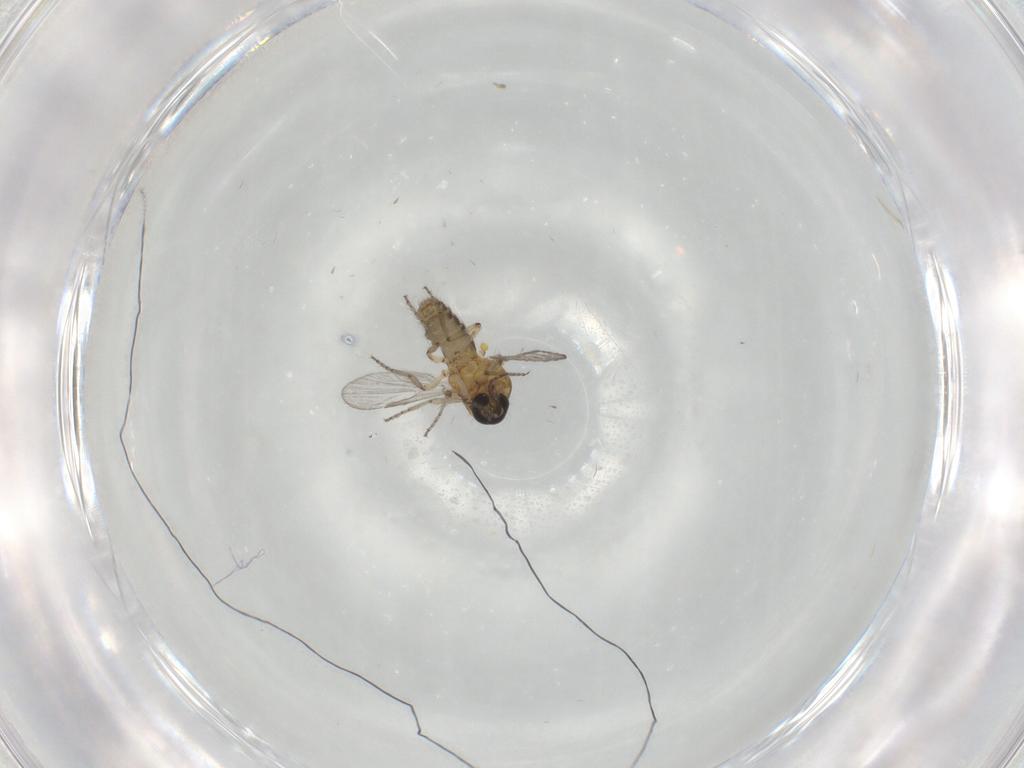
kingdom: Animalia
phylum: Arthropoda
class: Insecta
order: Diptera
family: Ceratopogonidae
